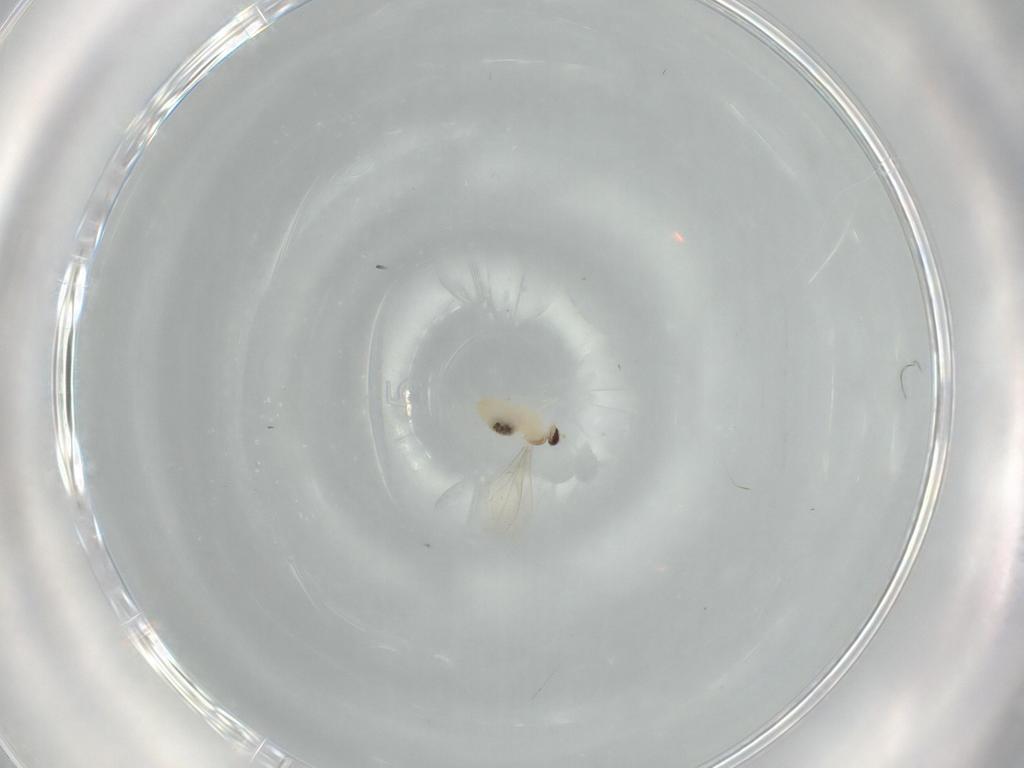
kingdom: Animalia
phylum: Arthropoda
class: Insecta
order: Diptera
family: Cecidomyiidae
